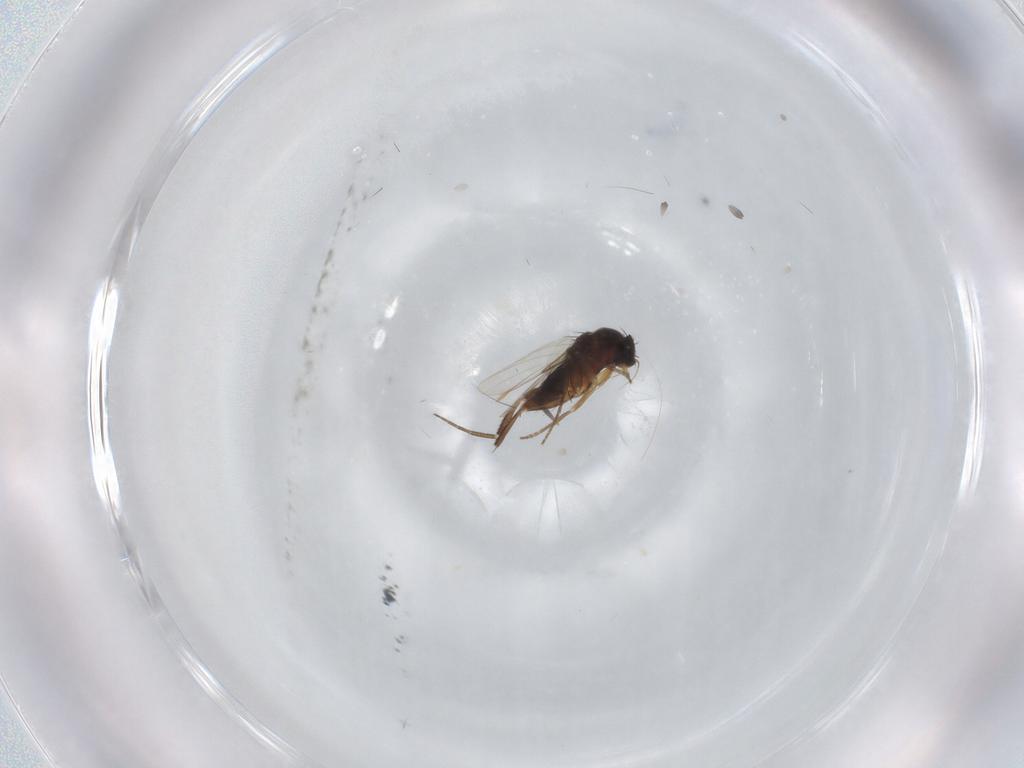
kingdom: Animalia
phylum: Arthropoda
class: Insecta
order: Diptera
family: Phoridae
